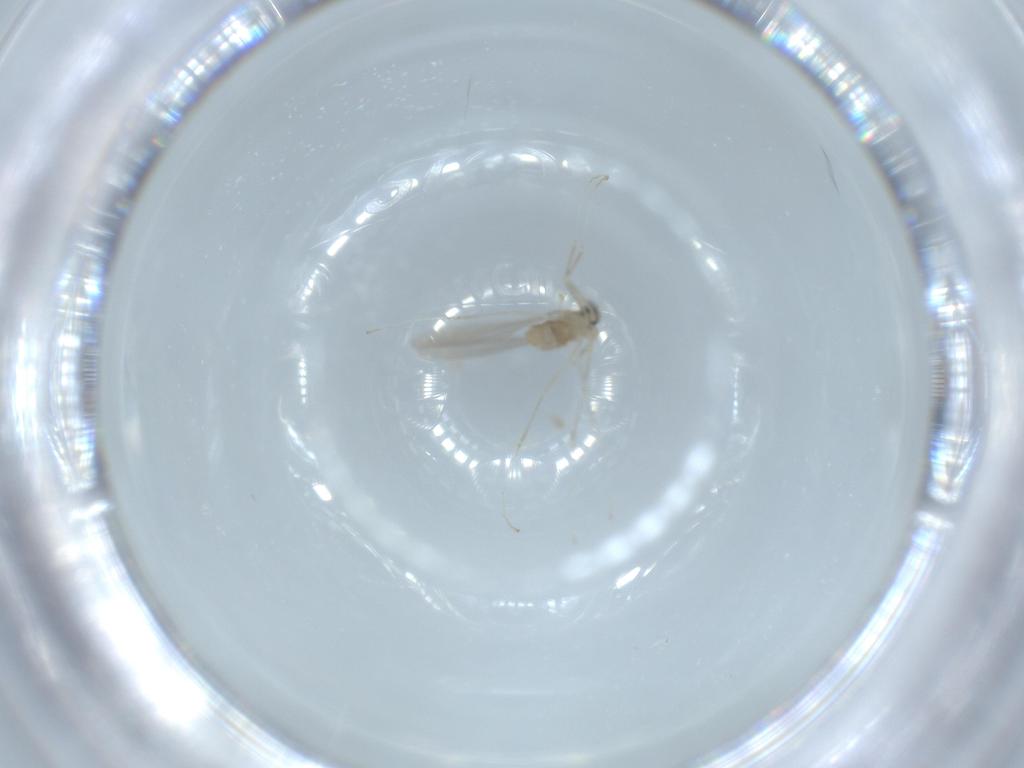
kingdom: Animalia
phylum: Arthropoda
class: Insecta
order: Diptera
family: Cecidomyiidae
